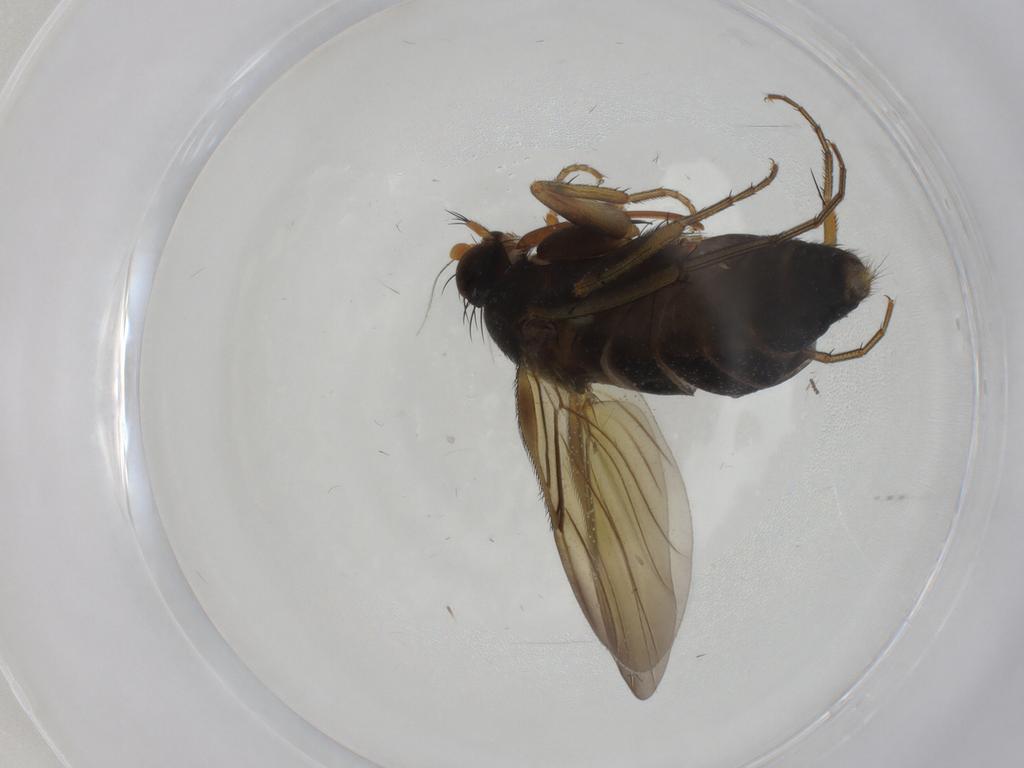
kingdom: Animalia
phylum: Arthropoda
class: Insecta
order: Diptera
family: Phoridae
